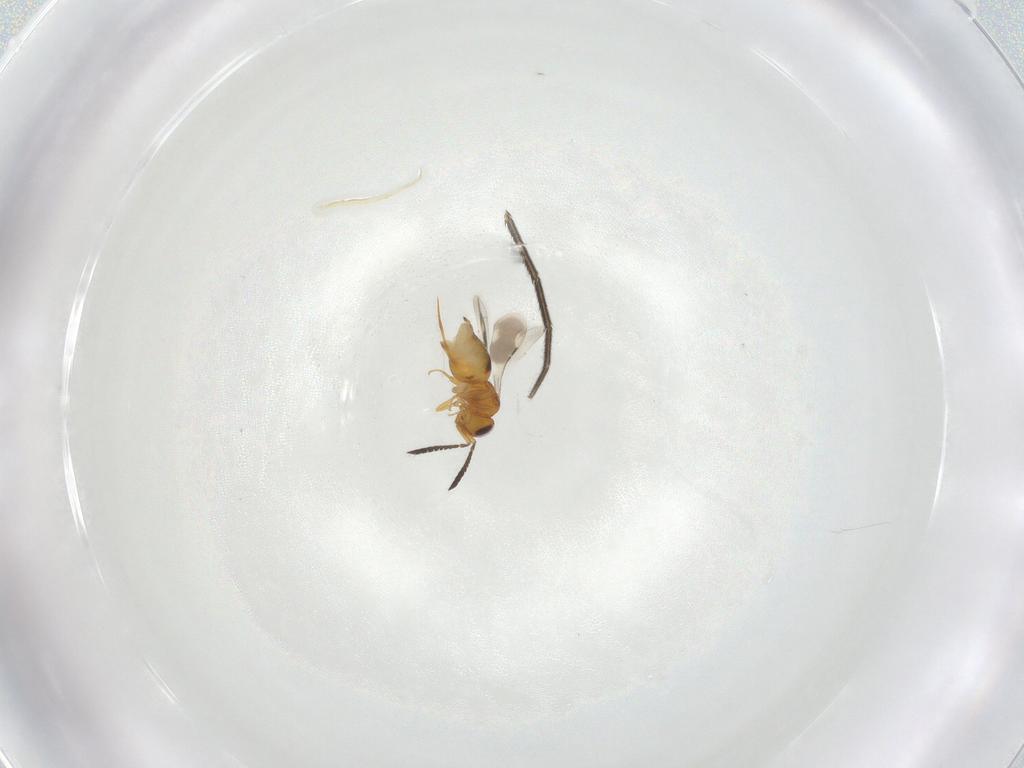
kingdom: Animalia
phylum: Arthropoda
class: Insecta
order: Hymenoptera
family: Ceraphronidae
